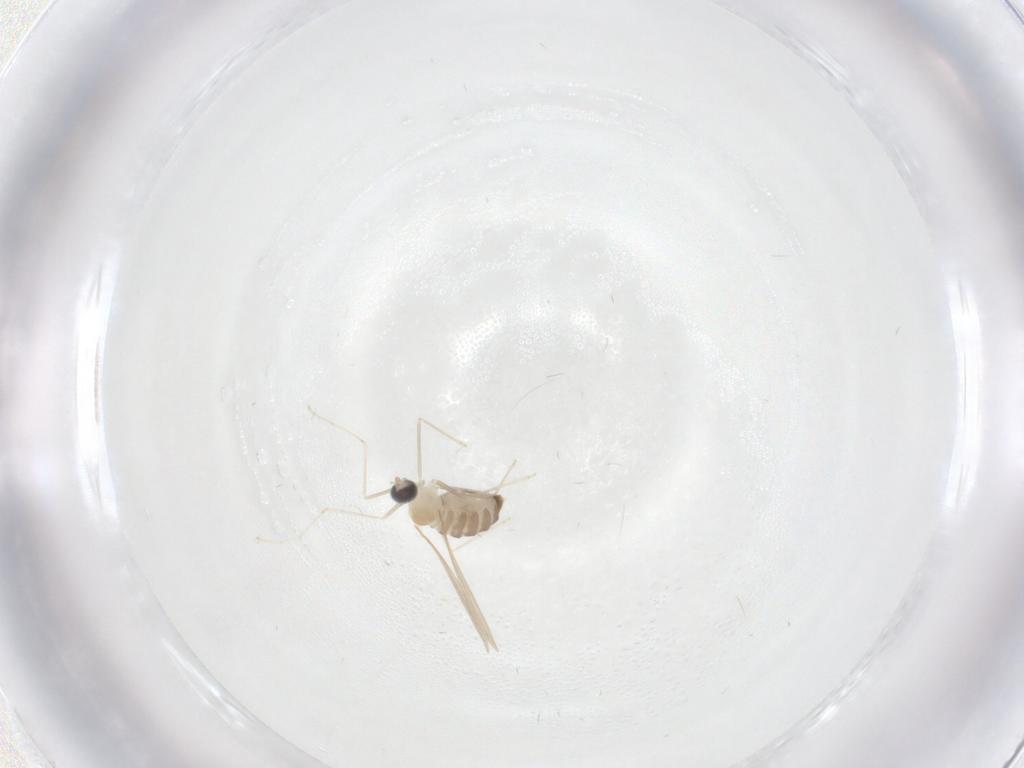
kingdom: Animalia
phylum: Arthropoda
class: Insecta
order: Diptera
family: Cecidomyiidae
